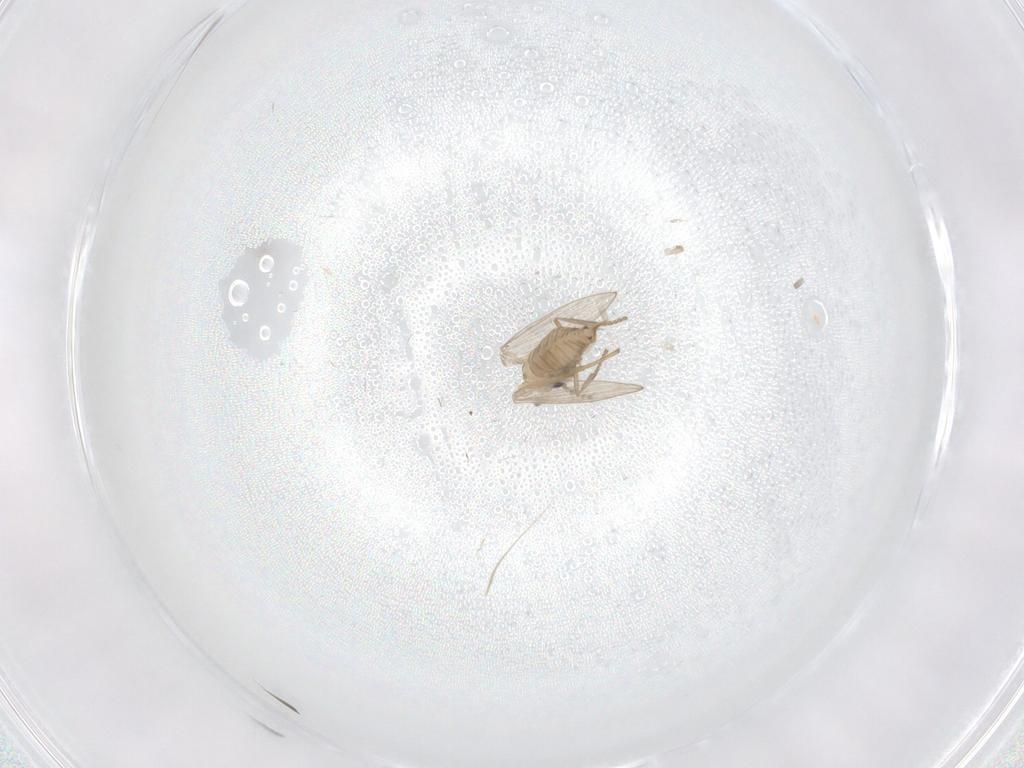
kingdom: Animalia
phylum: Arthropoda
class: Insecta
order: Diptera
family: Psychodidae
